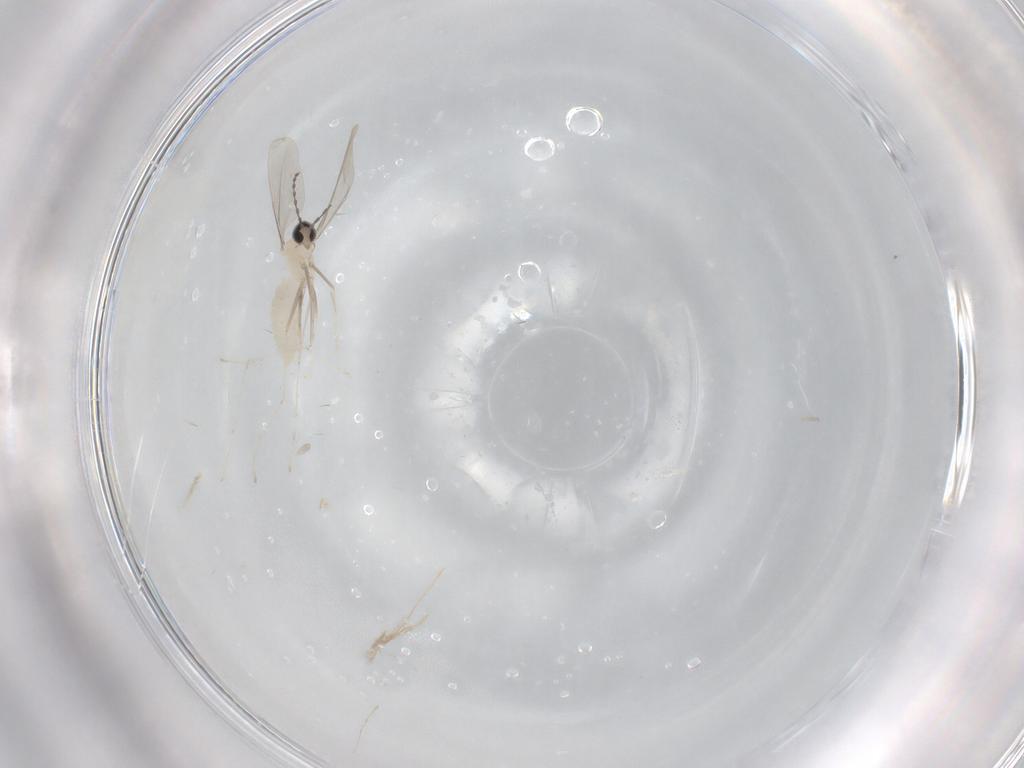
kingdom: Animalia
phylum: Arthropoda
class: Insecta
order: Diptera
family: Cecidomyiidae
